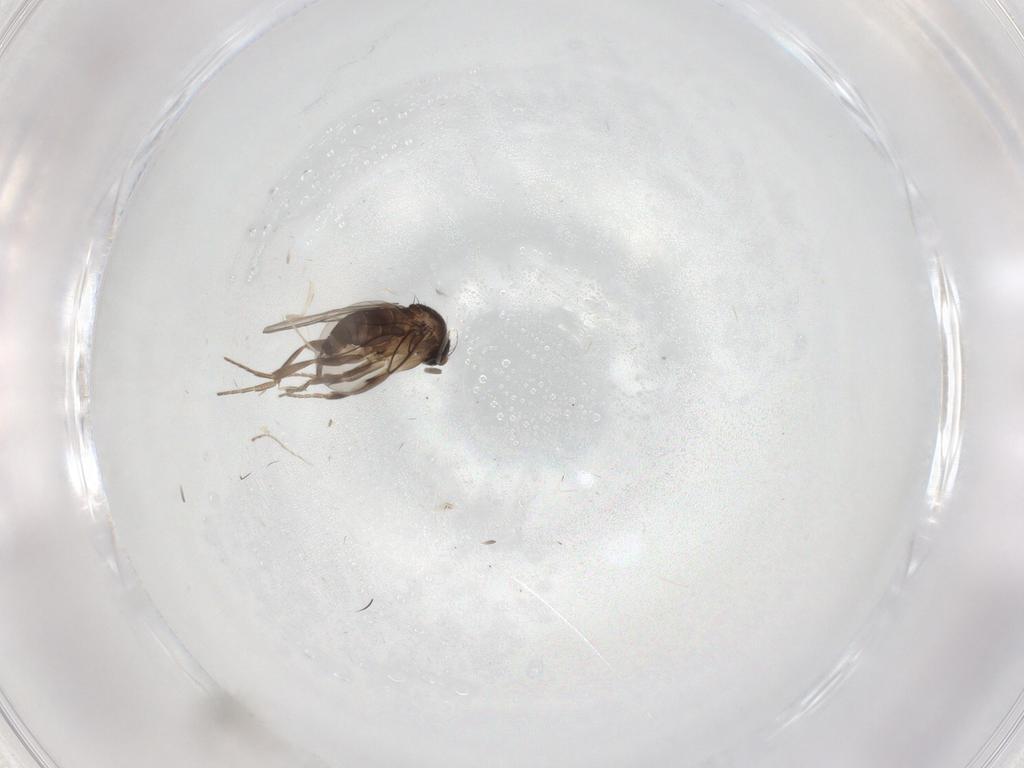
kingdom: Animalia
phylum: Arthropoda
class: Insecta
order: Diptera
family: Phoridae
